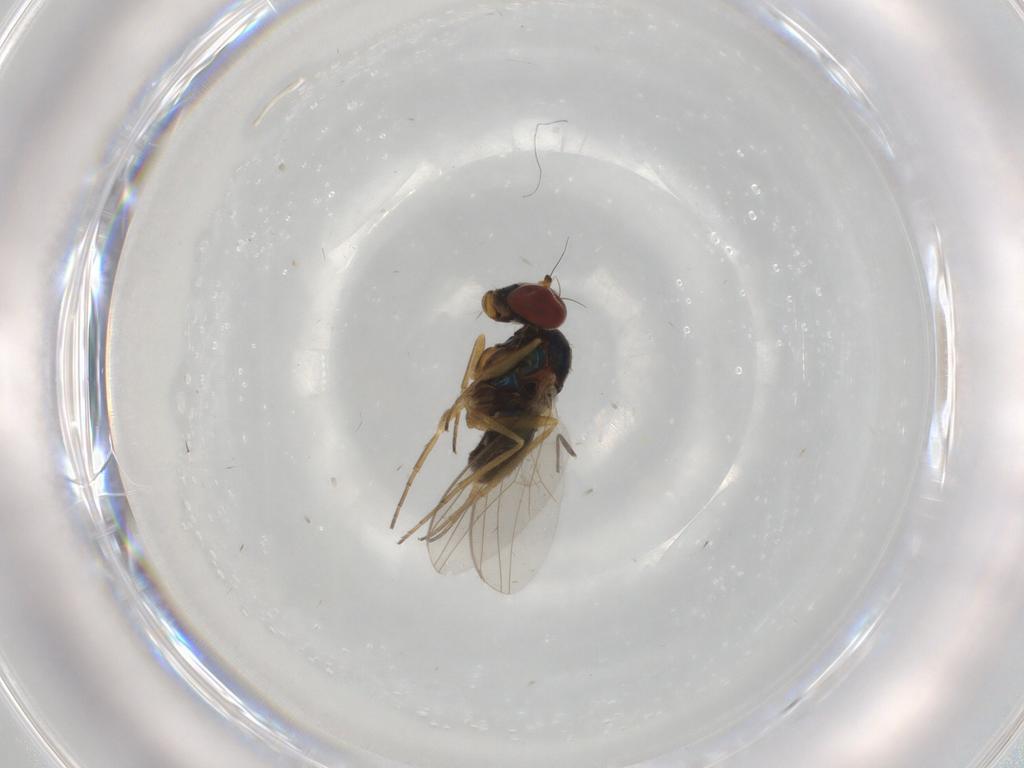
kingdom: Animalia
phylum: Arthropoda
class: Insecta
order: Diptera
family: Dolichopodidae
